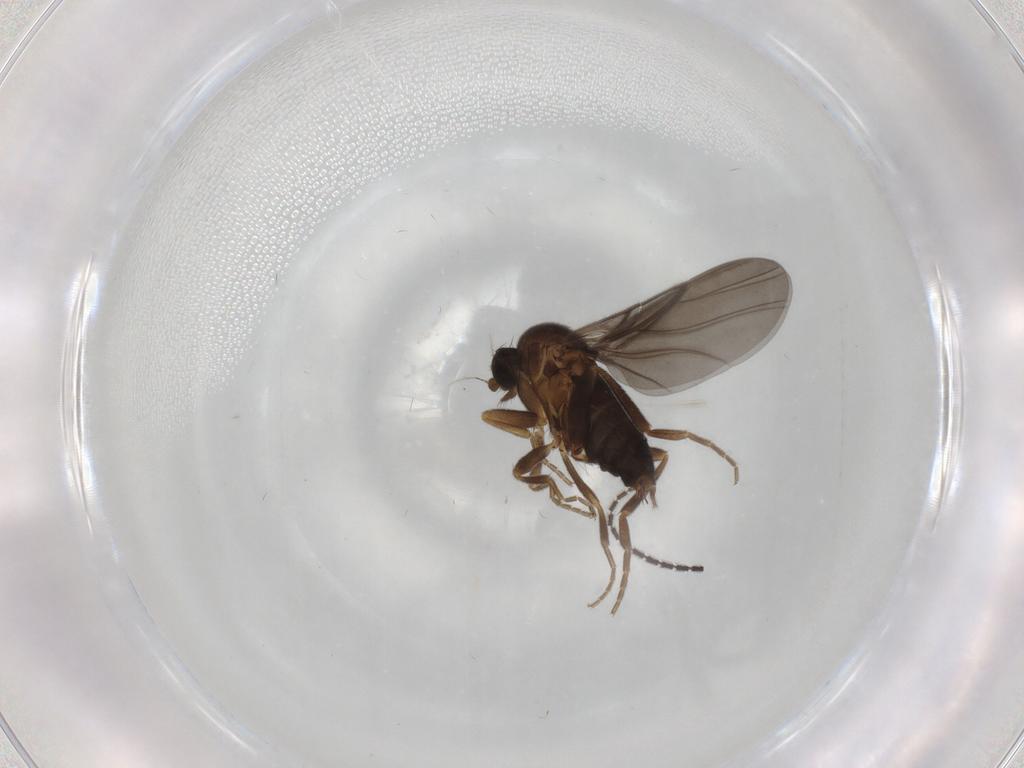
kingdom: Animalia
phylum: Arthropoda
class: Insecta
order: Diptera
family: Phoridae
